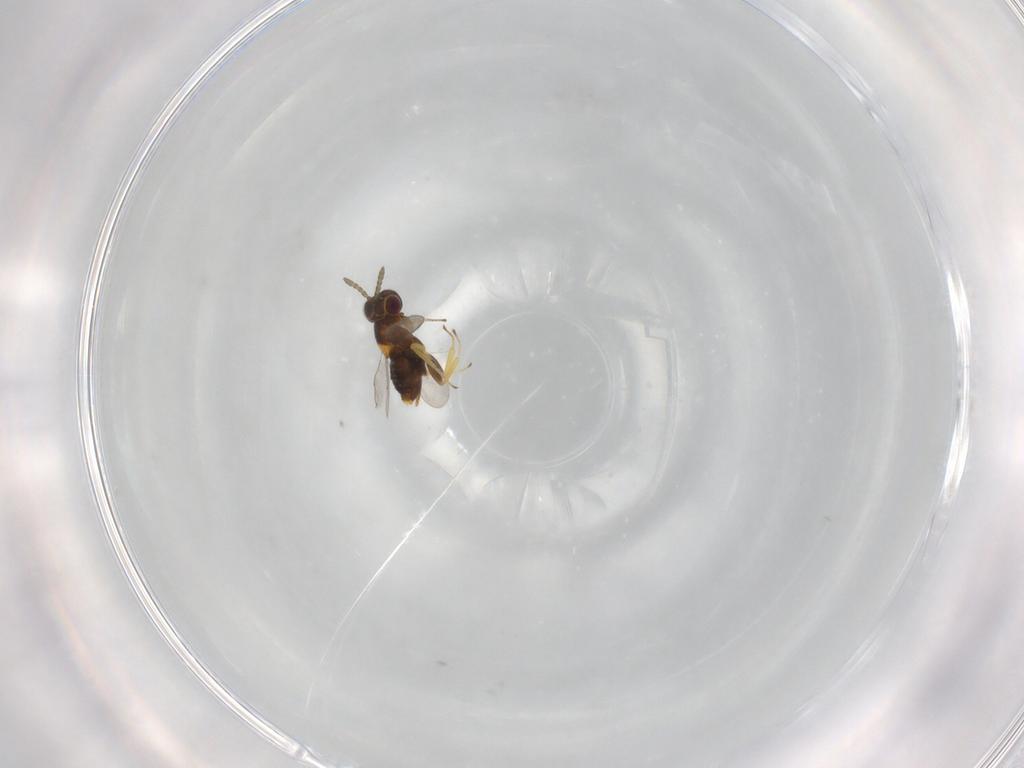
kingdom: Animalia
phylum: Arthropoda
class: Insecta
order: Hymenoptera
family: Aphelinidae
